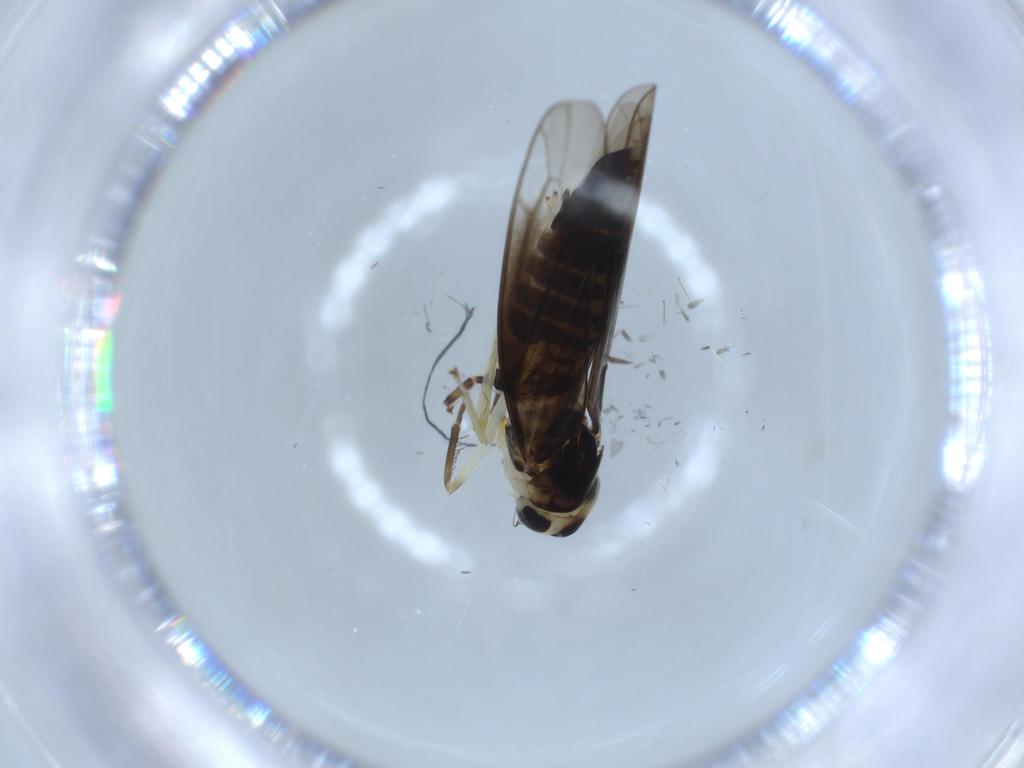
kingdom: Animalia
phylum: Arthropoda
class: Insecta
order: Hemiptera
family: Cicadellidae
